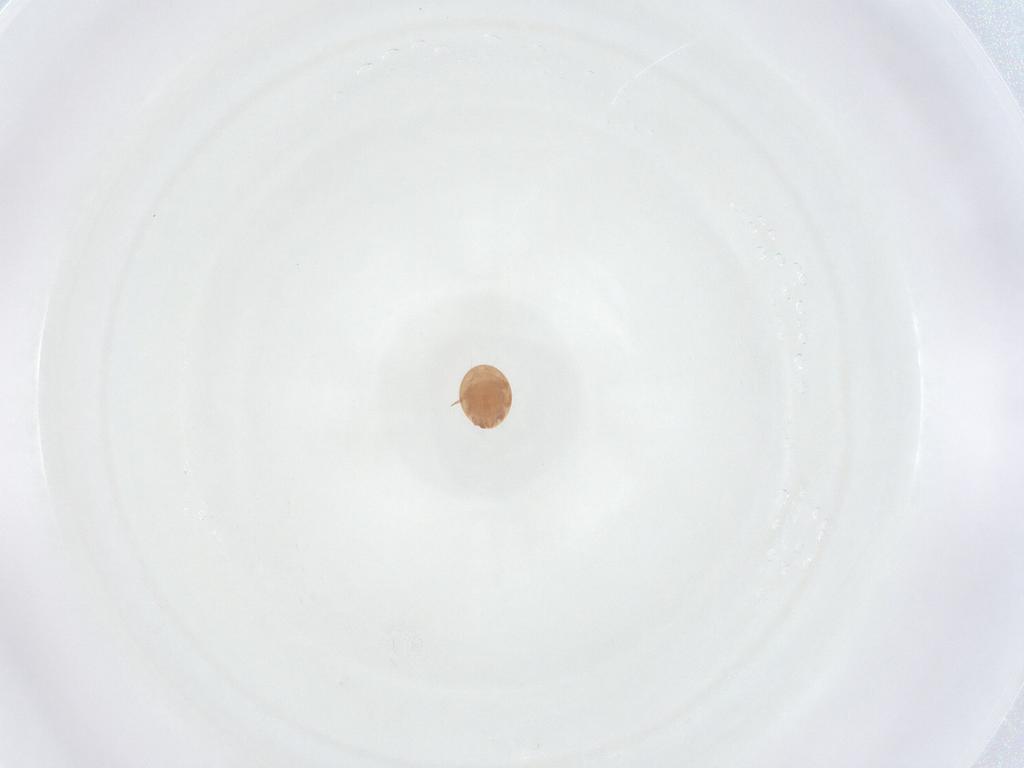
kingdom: Animalia
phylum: Arthropoda
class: Arachnida
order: Mesostigmata
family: Trematuridae
